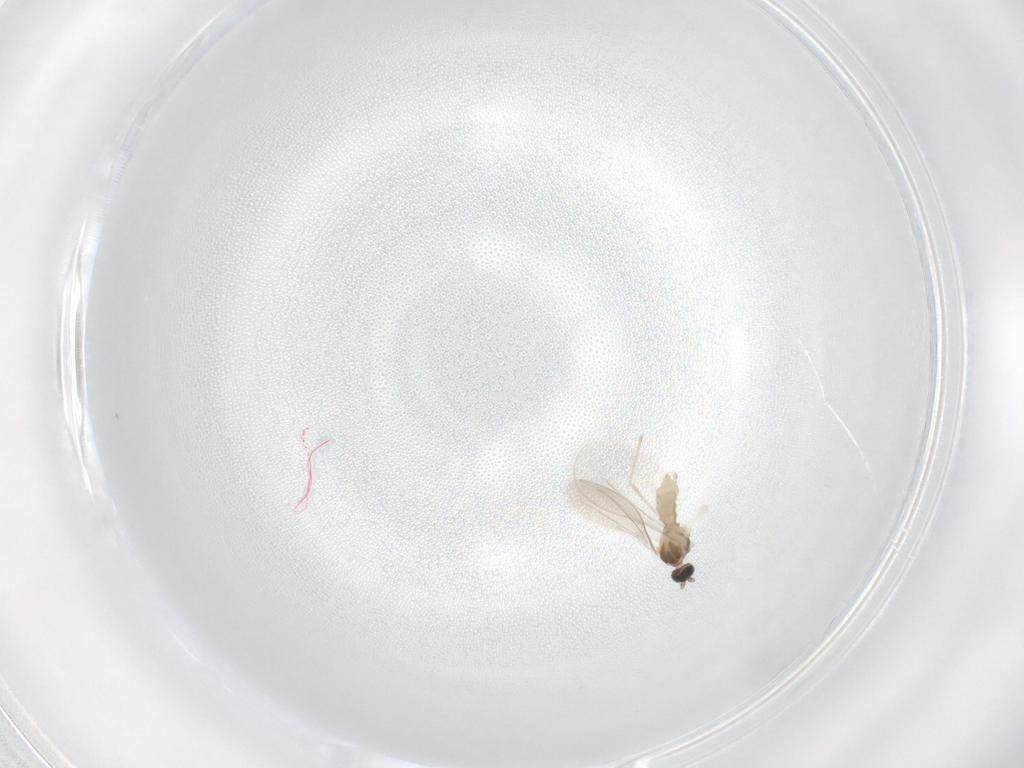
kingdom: Animalia
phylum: Arthropoda
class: Insecta
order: Diptera
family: Cecidomyiidae
